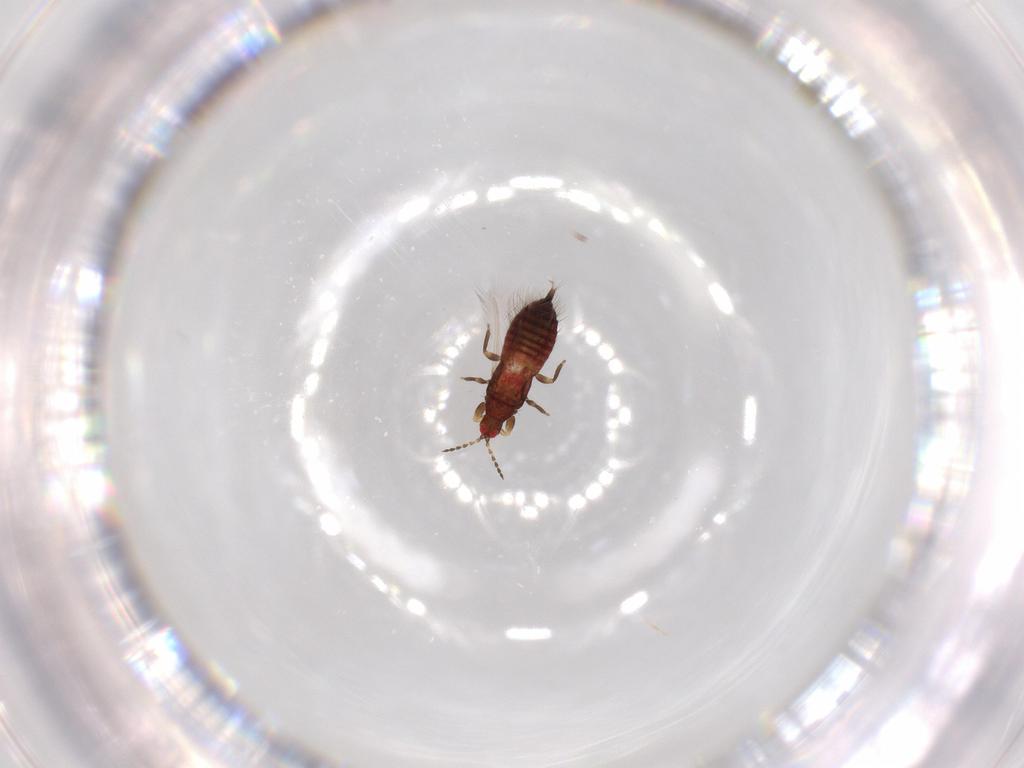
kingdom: Animalia
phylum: Arthropoda
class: Insecta
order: Thysanoptera
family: Phlaeothripidae
